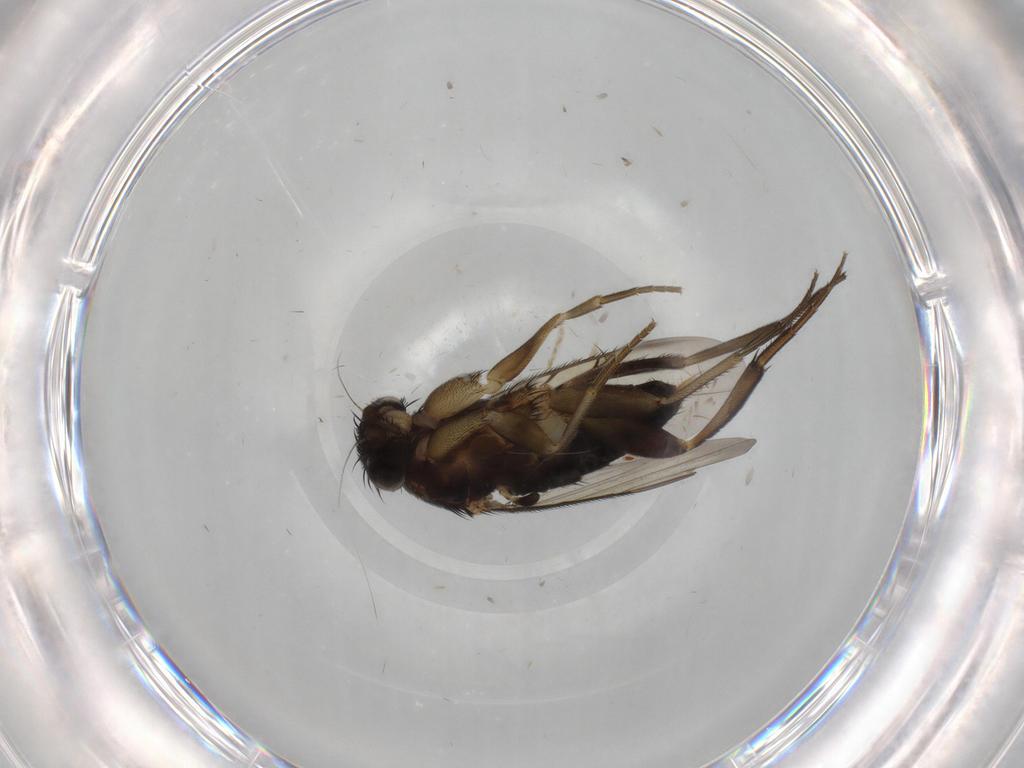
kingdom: Animalia
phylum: Arthropoda
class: Insecta
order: Diptera
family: Phoridae
